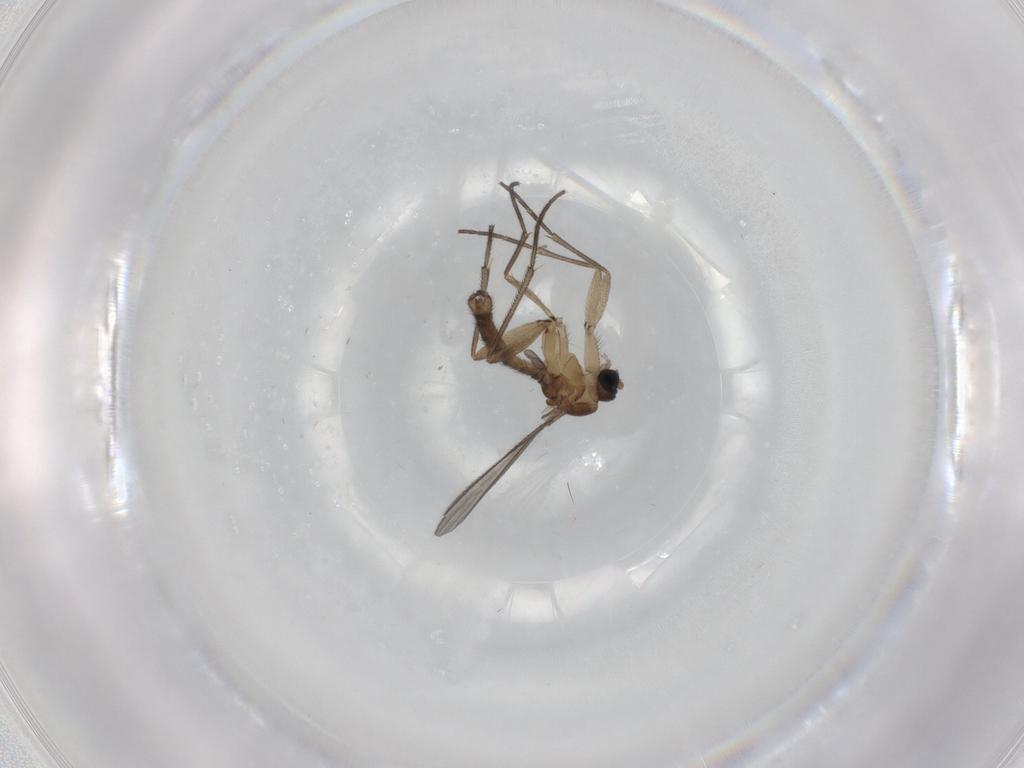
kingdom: Animalia
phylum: Arthropoda
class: Insecta
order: Diptera
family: Sciaridae
